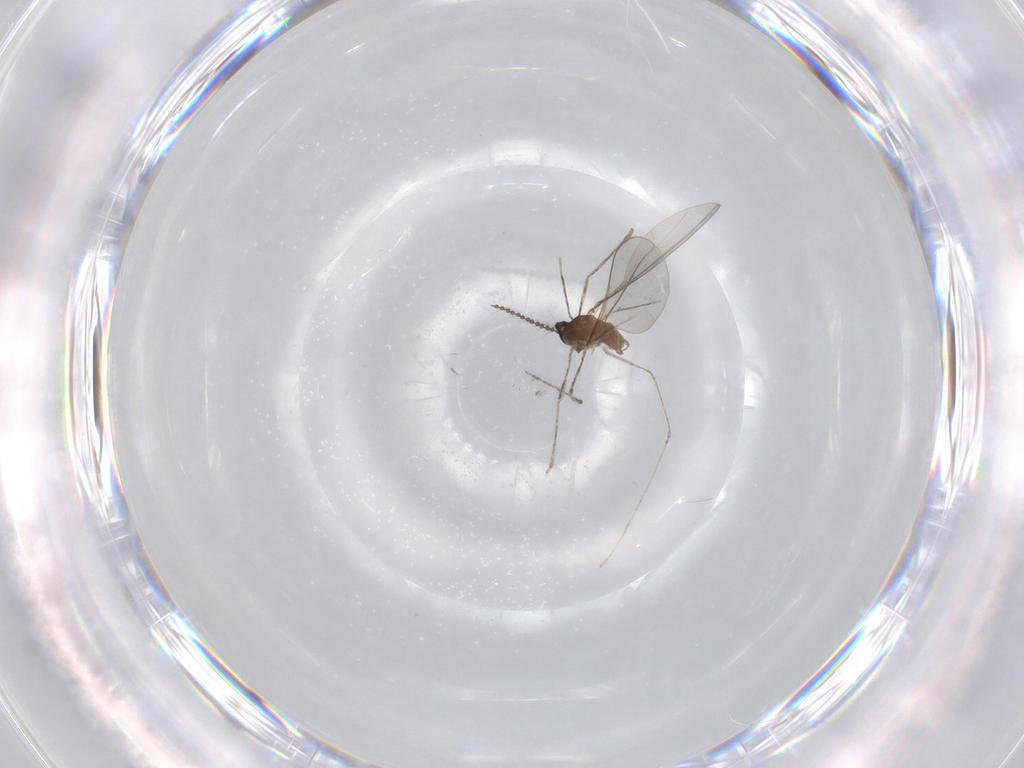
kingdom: Animalia
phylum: Arthropoda
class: Insecta
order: Diptera
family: Cecidomyiidae
